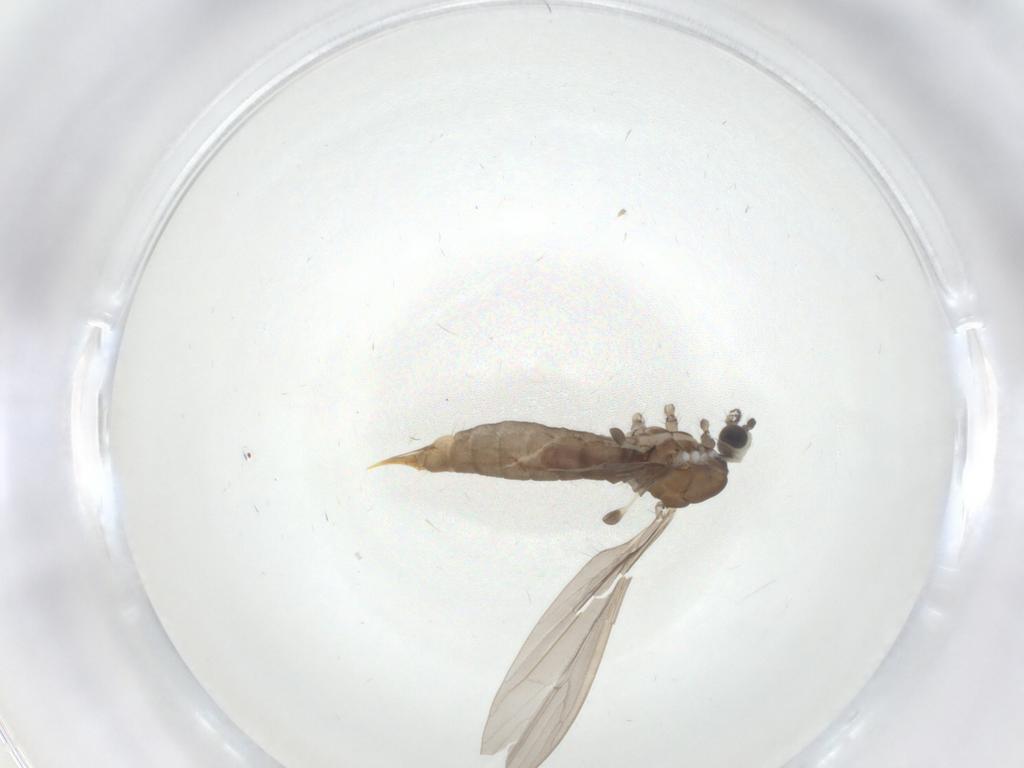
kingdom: Animalia
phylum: Arthropoda
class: Insecta
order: Diptera
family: Limoniidae
